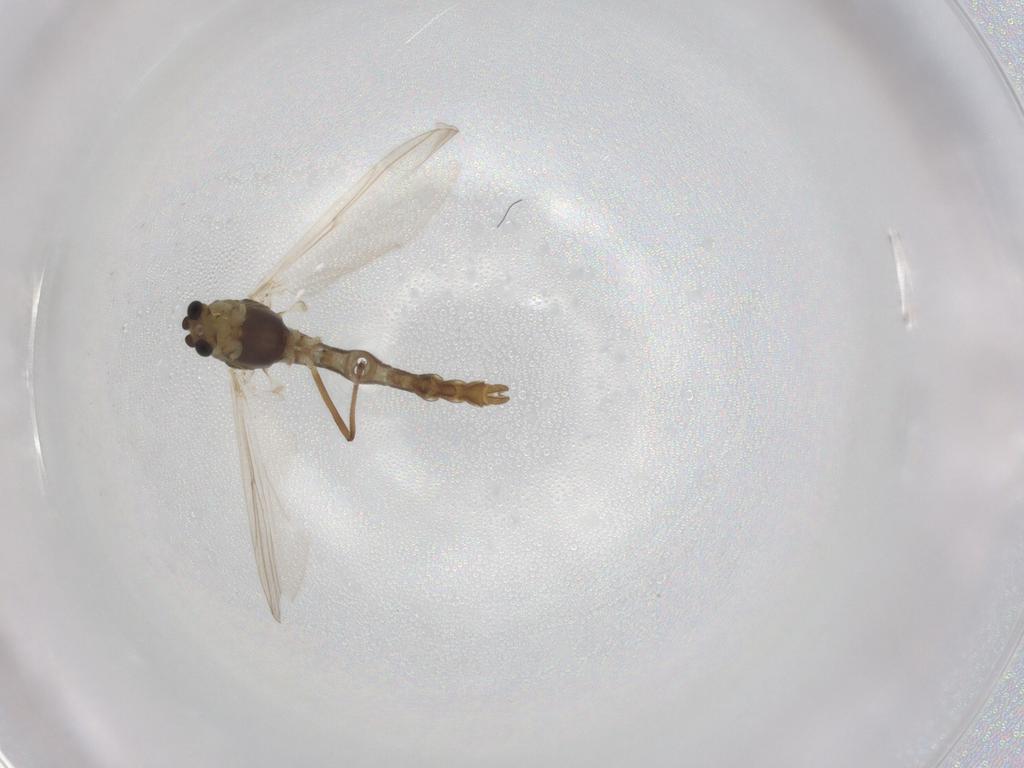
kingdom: Animalia
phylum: Arthropoda
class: Insecta
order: Diptera
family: Chironomidae
